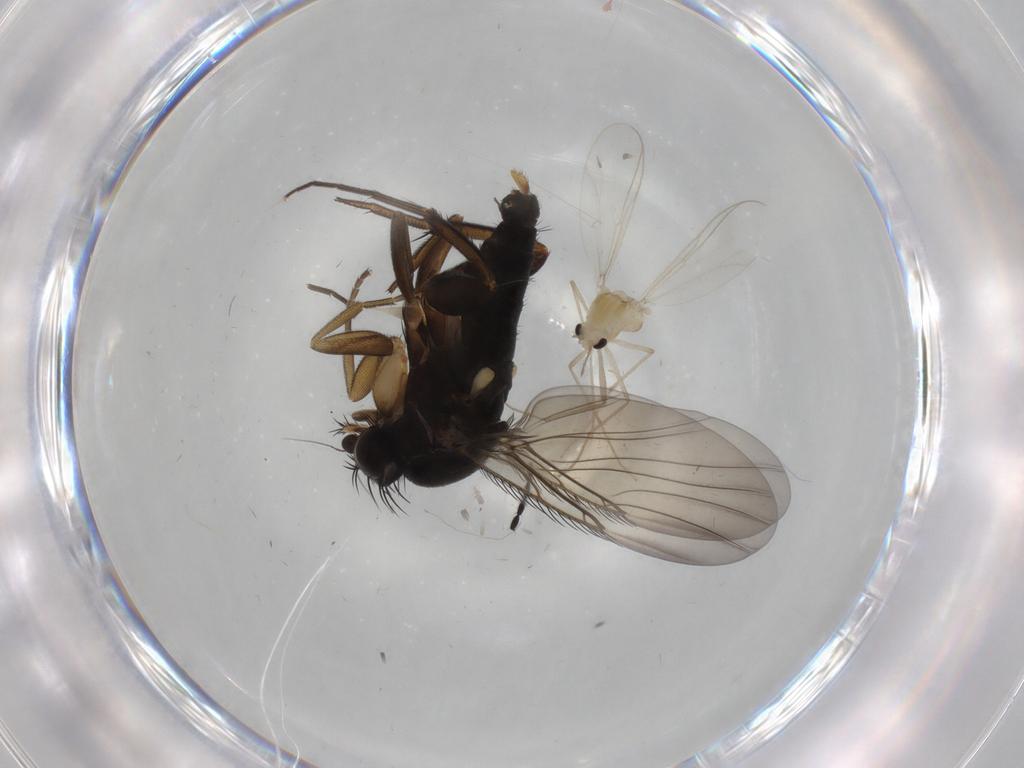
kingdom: Animalia
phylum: Arthropoda
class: Insecta
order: Diptera
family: Phoridae
